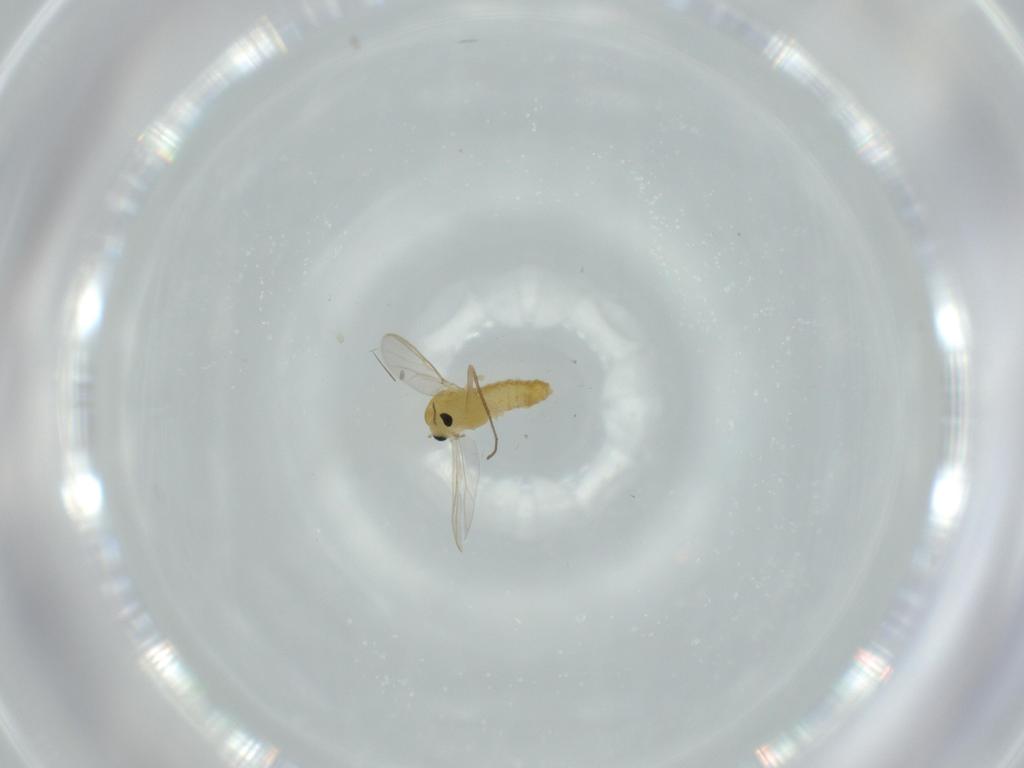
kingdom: Animalia
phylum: Arthropoda
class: Insecta
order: Diptera
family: Chironomidae
